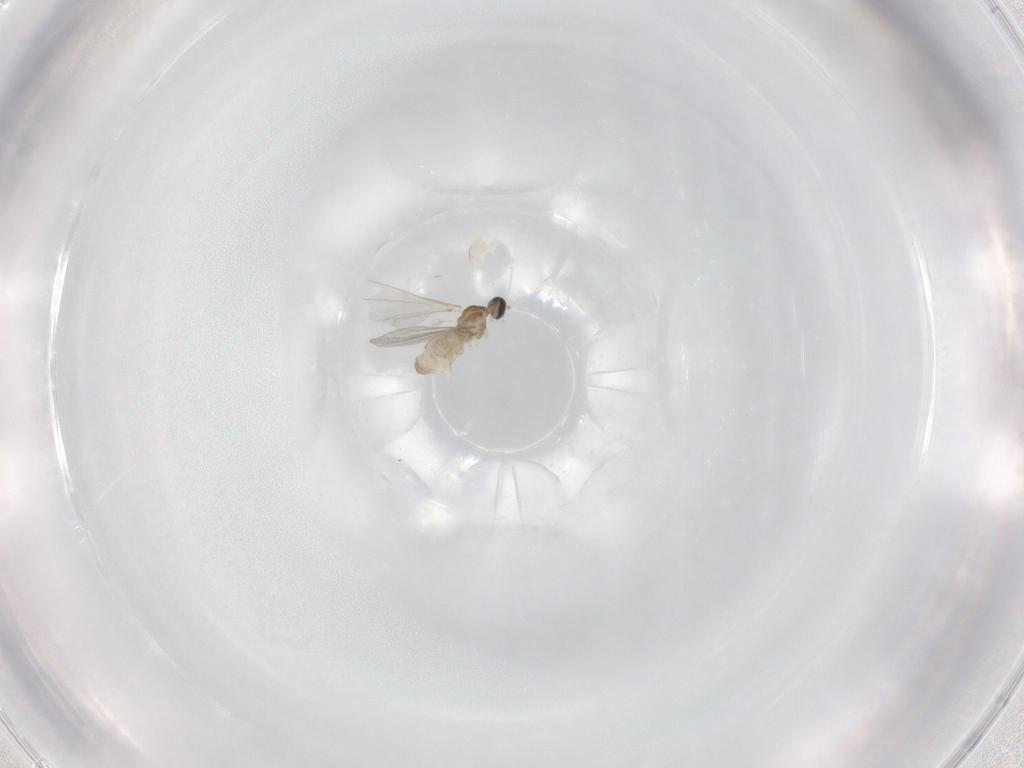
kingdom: Animalia
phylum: Arthropoda
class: Insecta
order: Diptera
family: Cecidomyiidae
